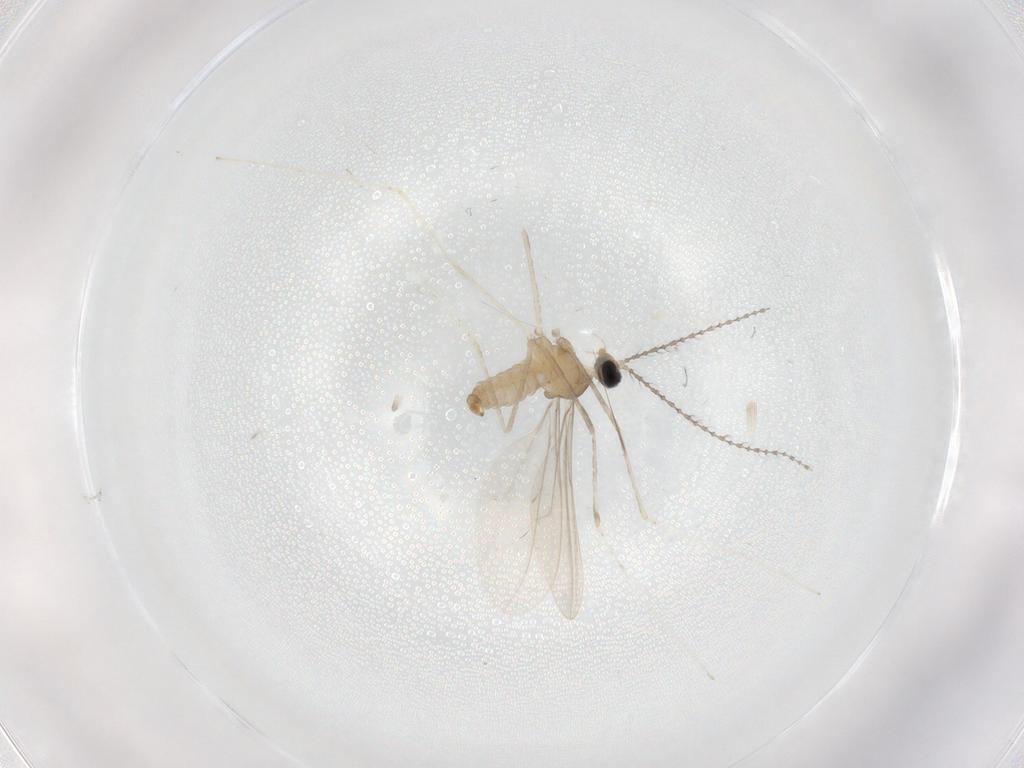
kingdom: Animalia
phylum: Arthropoda
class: Insecta
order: Diptera
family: Cecidomyiidae
